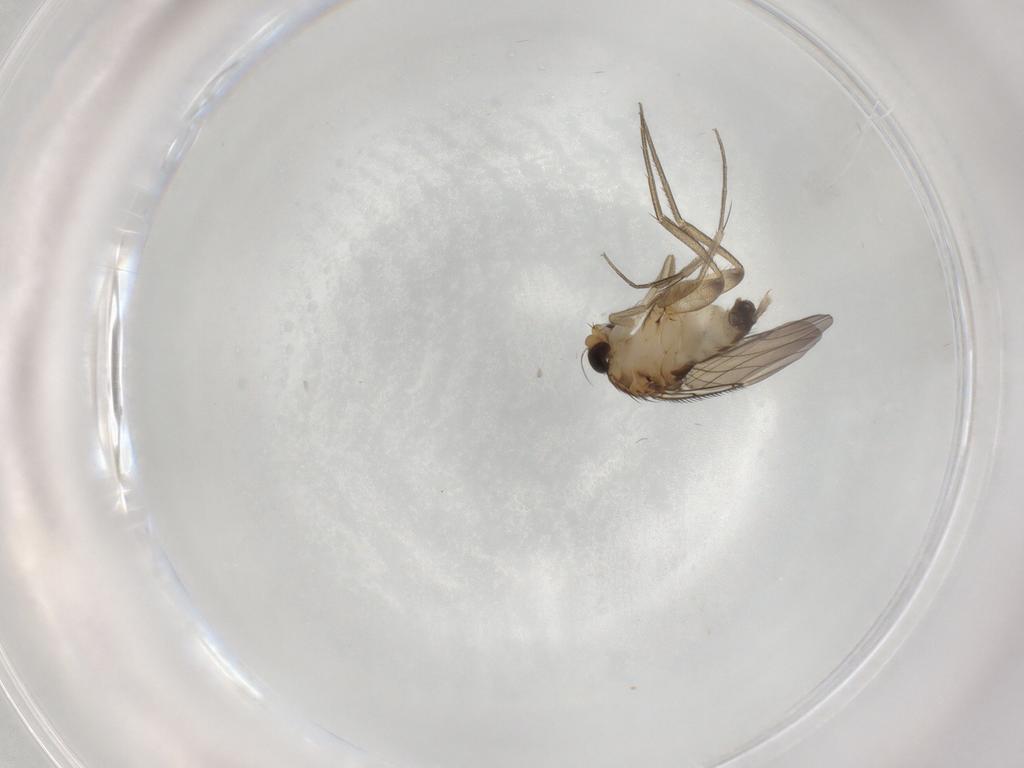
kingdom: Animalia
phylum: Arthropoda
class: Insecta
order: Diptera
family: Phoridae
